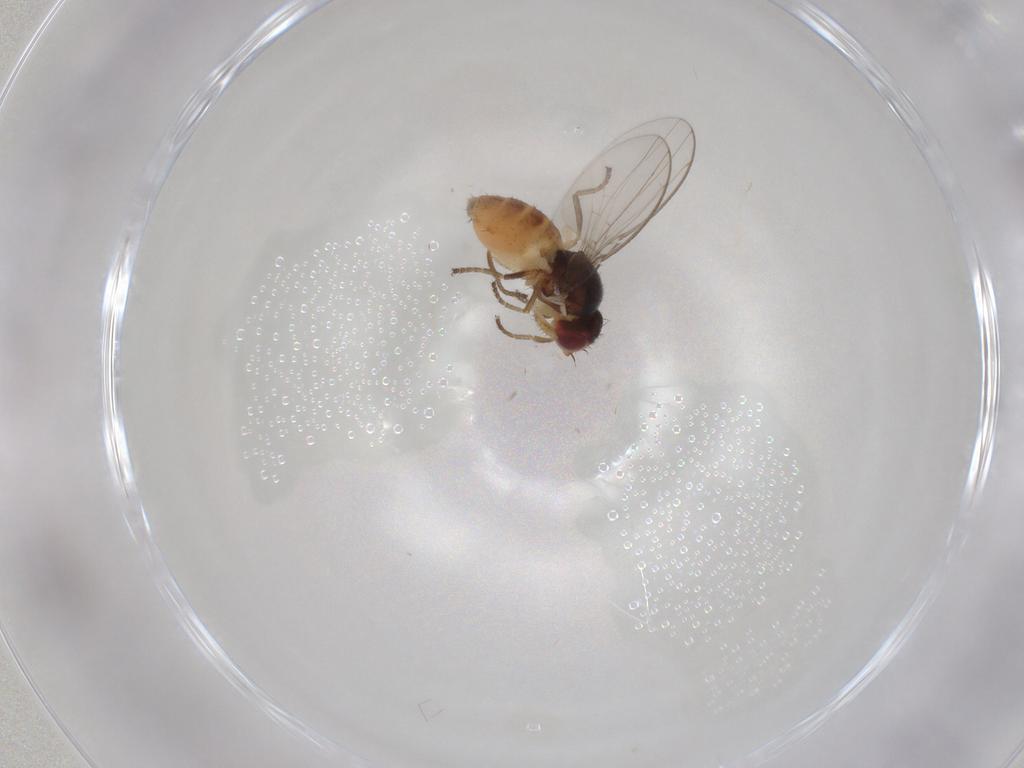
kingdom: Animalia
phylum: Arthropoda
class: Insecta
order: Diptera
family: Chloropidae
